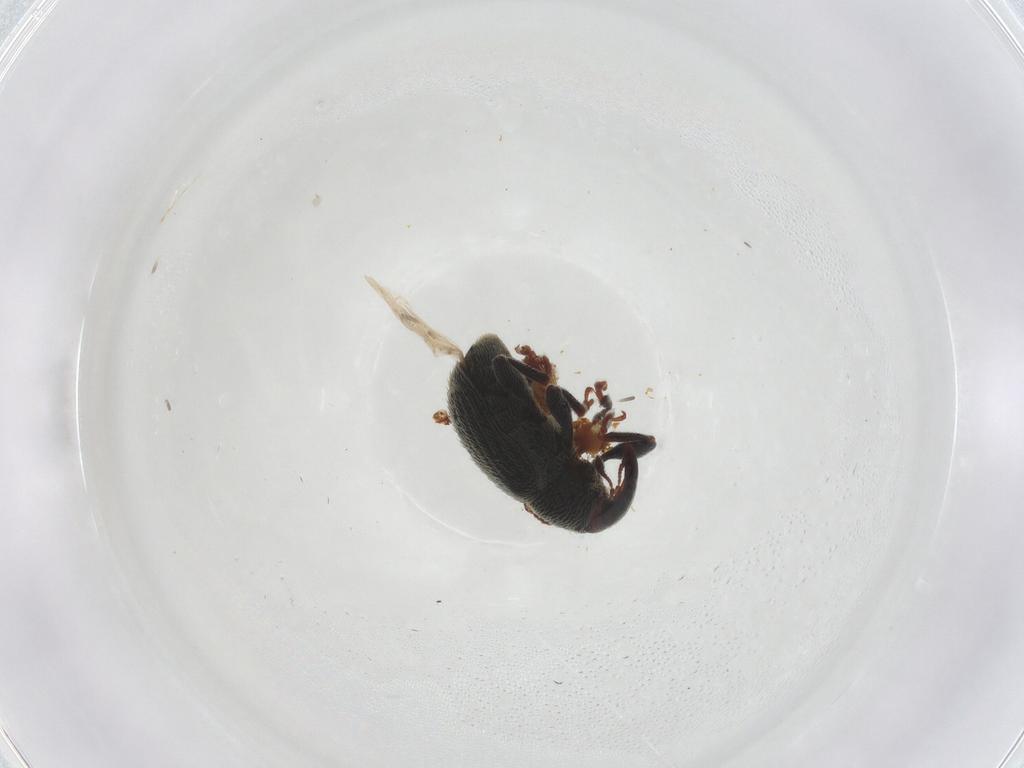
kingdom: Animalia
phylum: Arthropoda
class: Insecta
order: Coleoptera
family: Curculionidae
